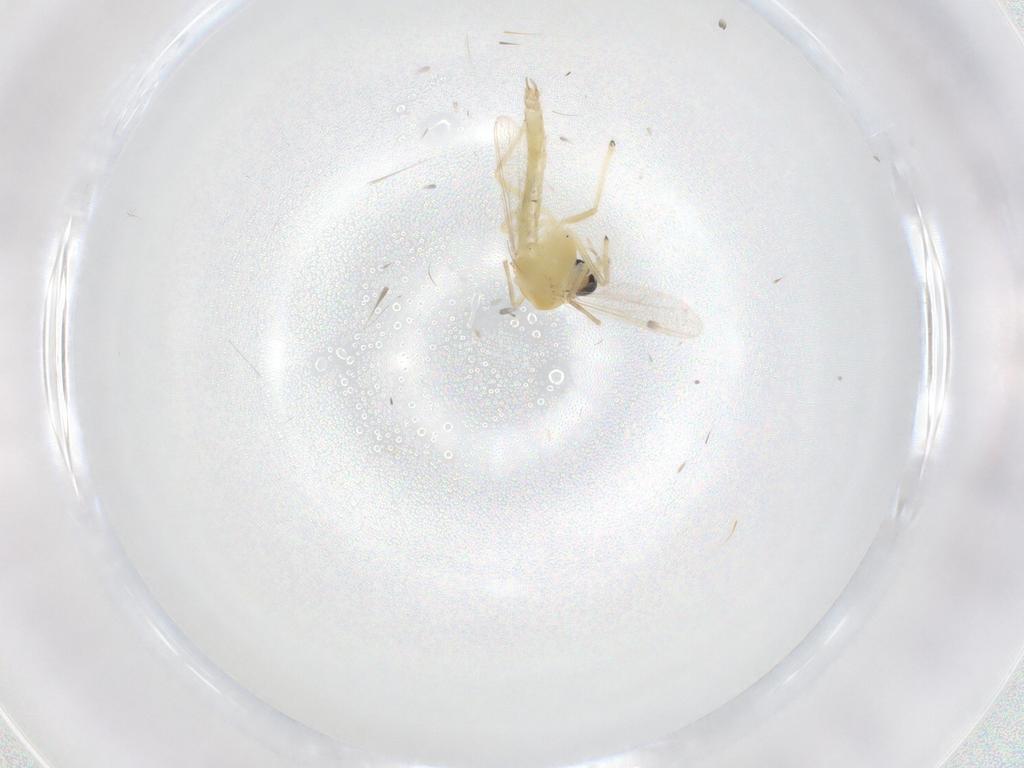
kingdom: Animalia
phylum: Arthropoda
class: Insecta
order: Diptera
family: Chironomidae
